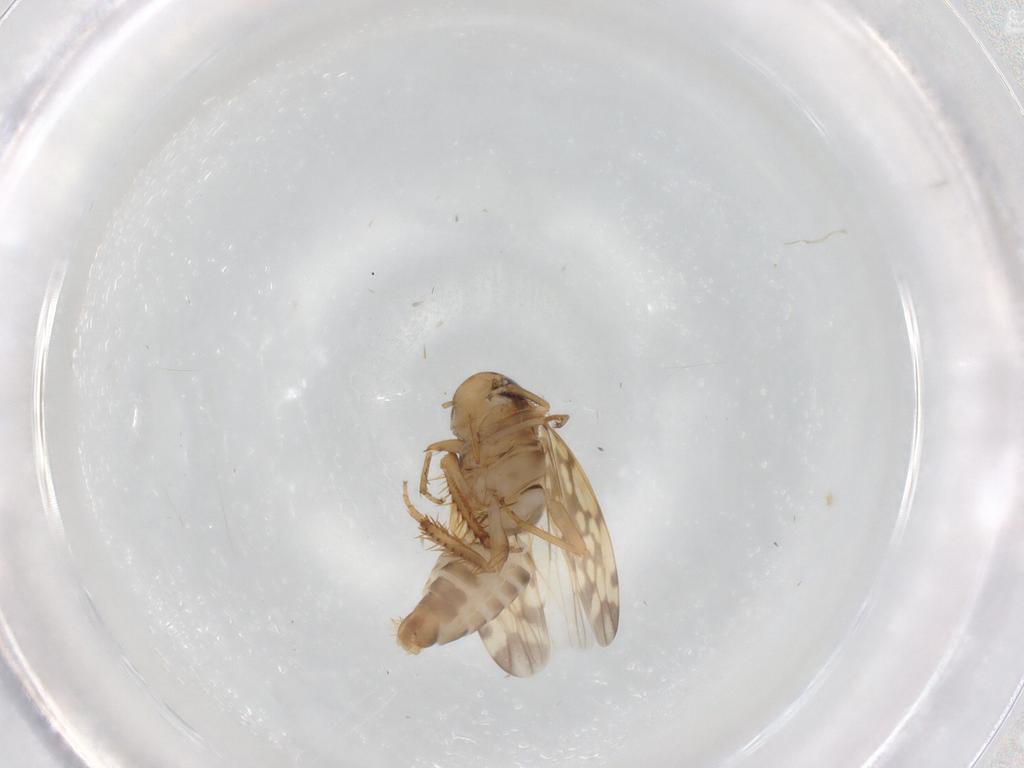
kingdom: Animalia
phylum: Arthropoda
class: Insecta
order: Hemiptera
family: Cicadellidae
